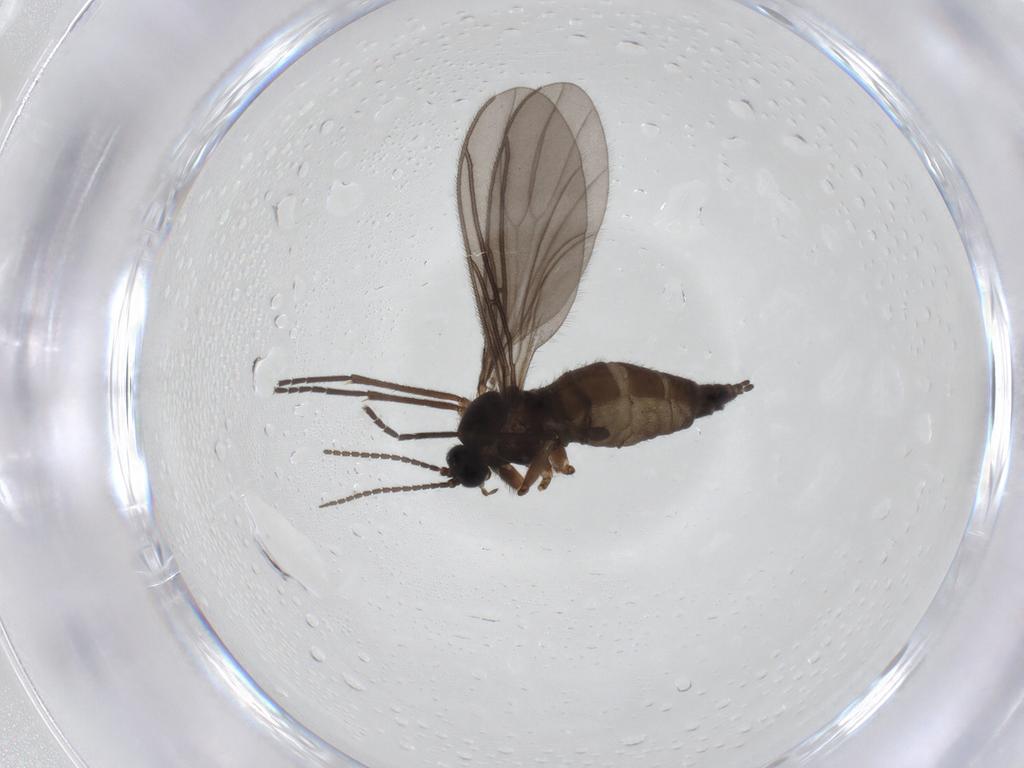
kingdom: Animalia
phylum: Arthropoda
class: Insecta
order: Diptera
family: Sciaridae
